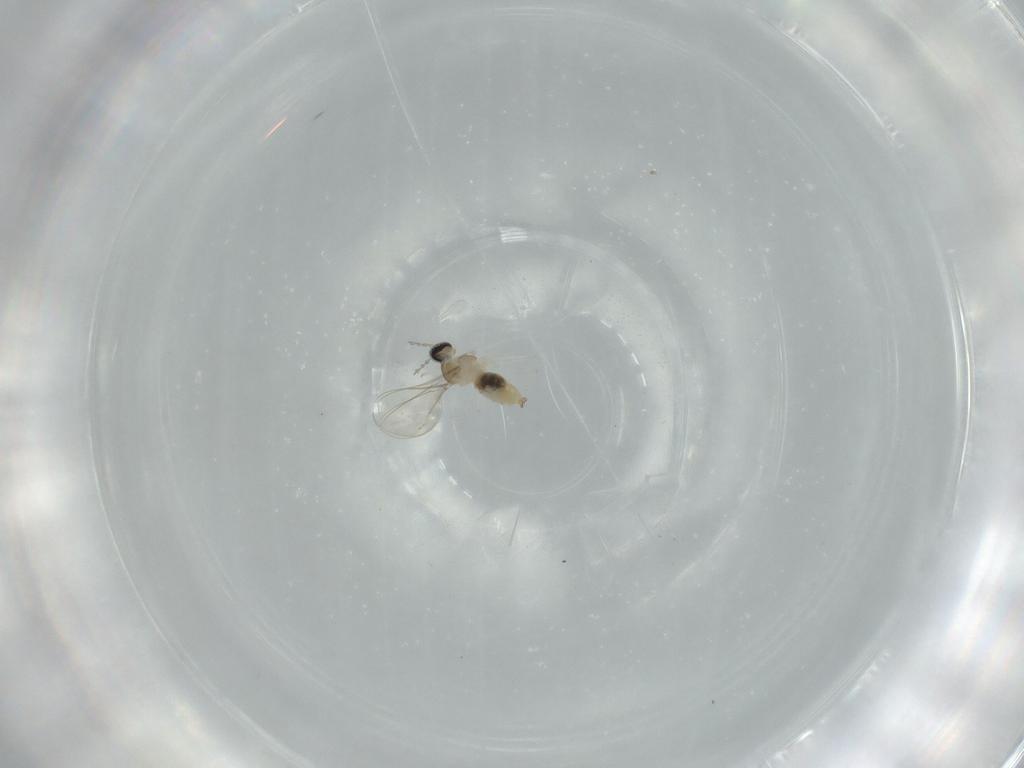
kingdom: Animalia
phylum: Arthropoda
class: Insecta
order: Diptera
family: Cecidomyiidae
